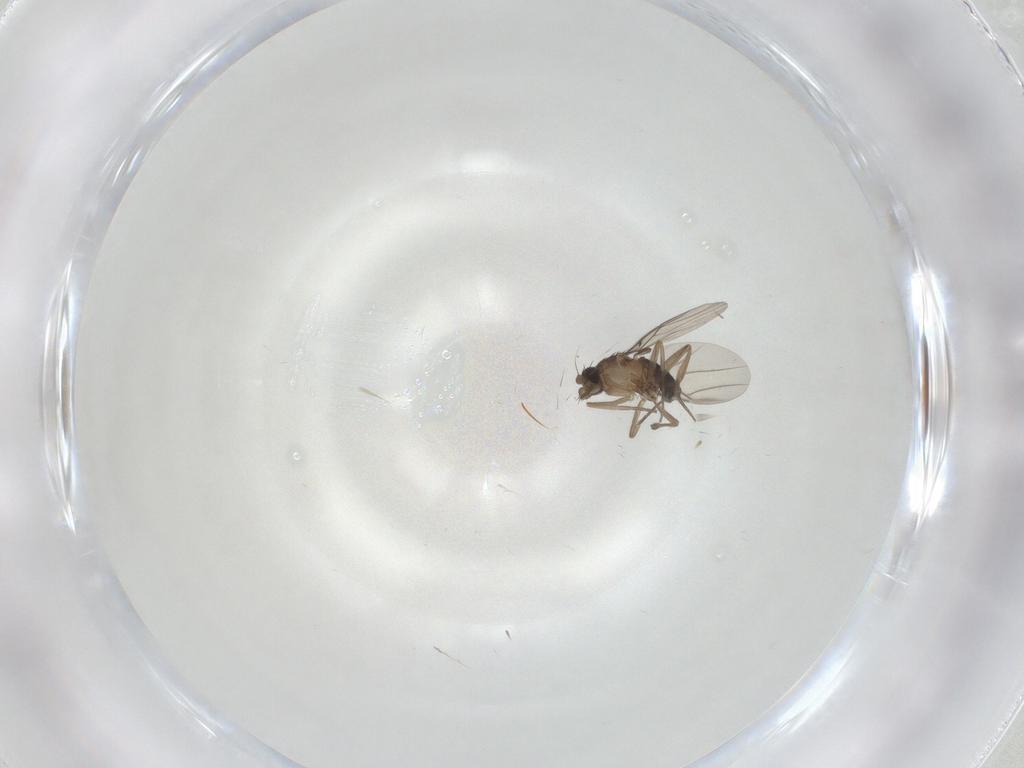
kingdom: Animalia
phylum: Arthropoda
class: Insecta
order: Diptera
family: Phoridae
